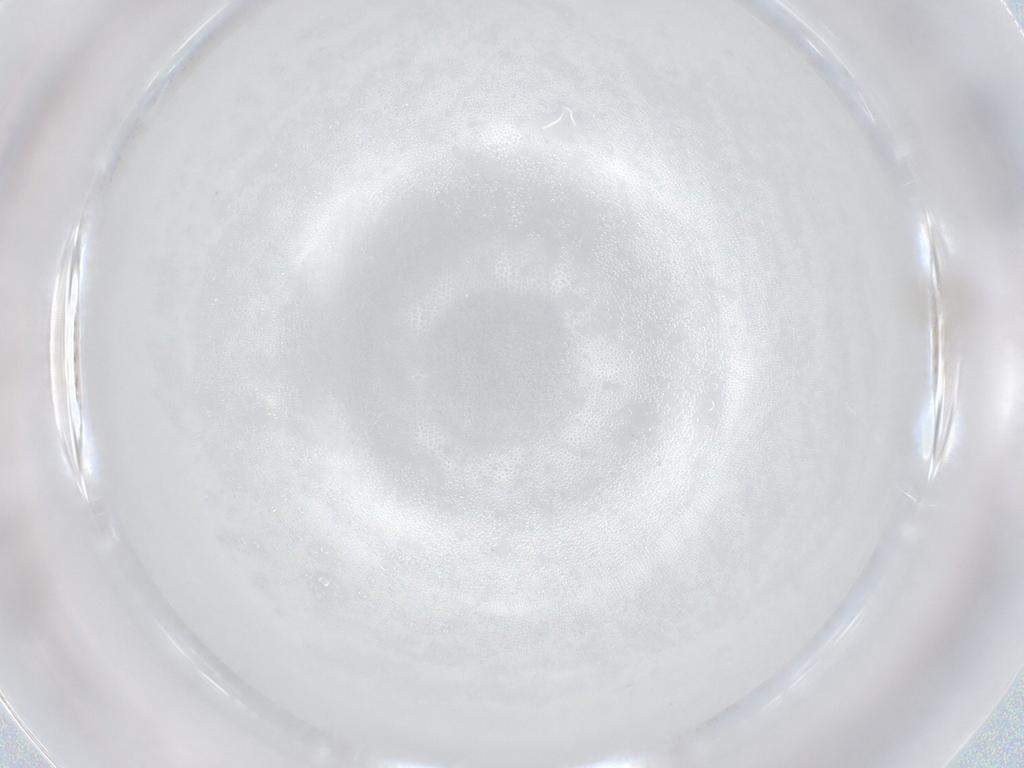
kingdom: Animalia
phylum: Arthropoda
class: Insecta
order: Diptera
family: Cecidomyiidae
